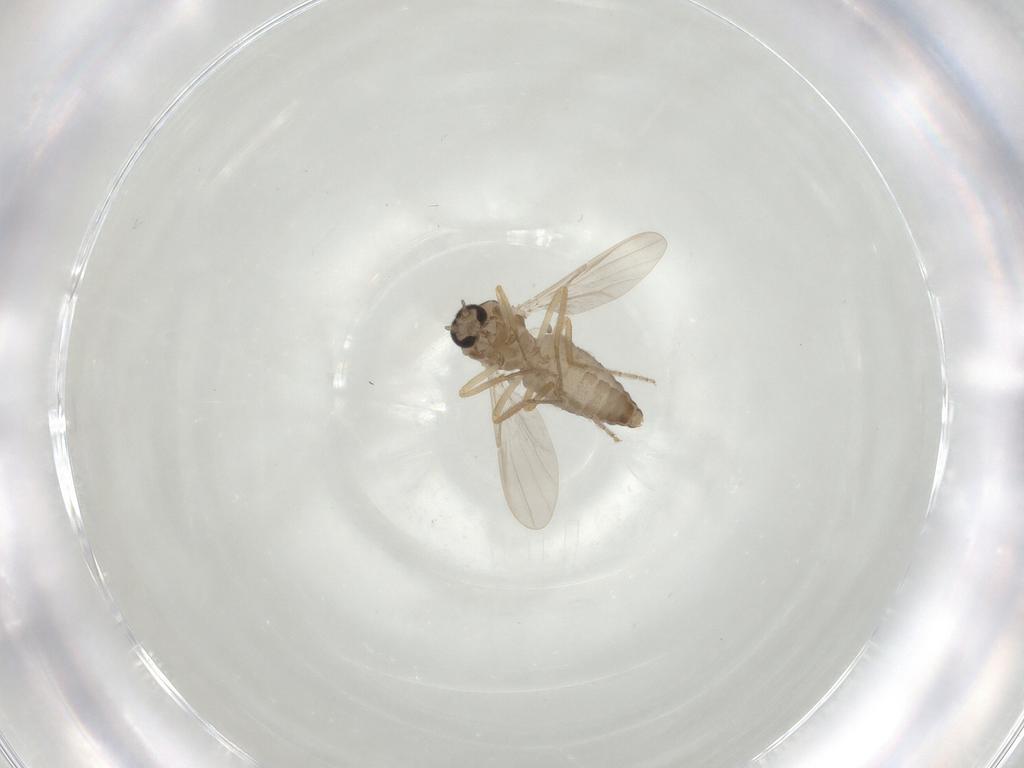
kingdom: Animalia
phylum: Arthropoda
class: Insecta
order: Diptera
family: Ceratopogonidae
